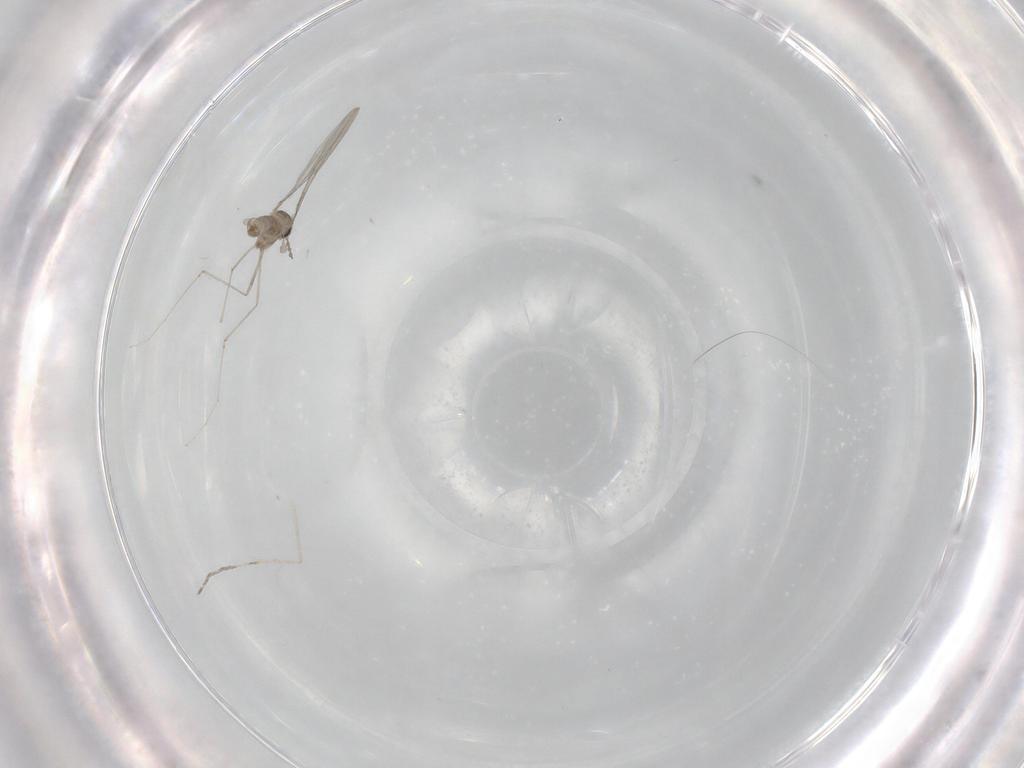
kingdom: Animalia
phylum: Arthropoda
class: Insecta
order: Diptera
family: Cecidomyiidae
